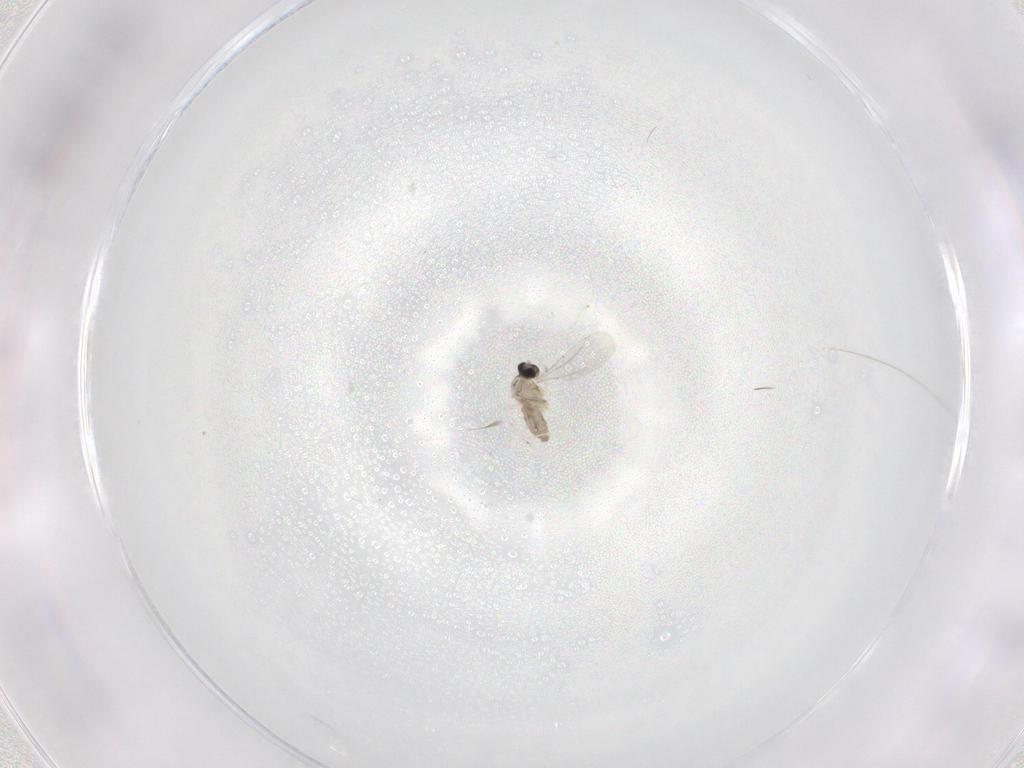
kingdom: Animalia
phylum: Arthropoda
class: Insecta
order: Diptera
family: Cecidomyiidae
